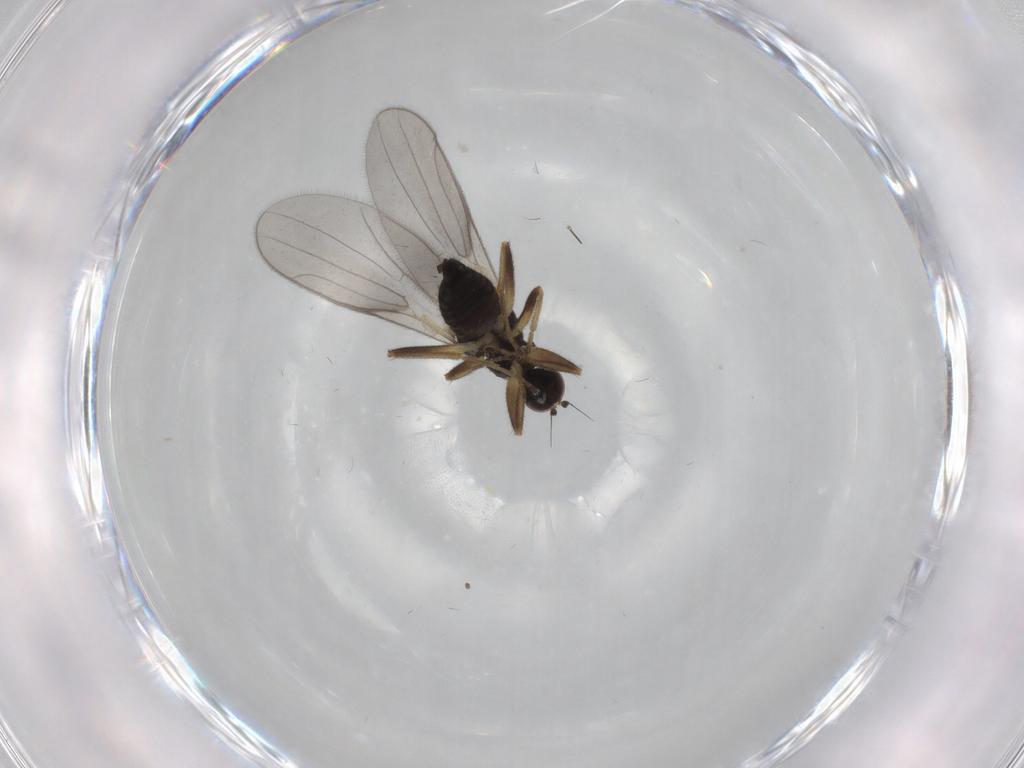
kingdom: Animalia
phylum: Arthropoda
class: Insecta
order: Diptera
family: Hybotidae
